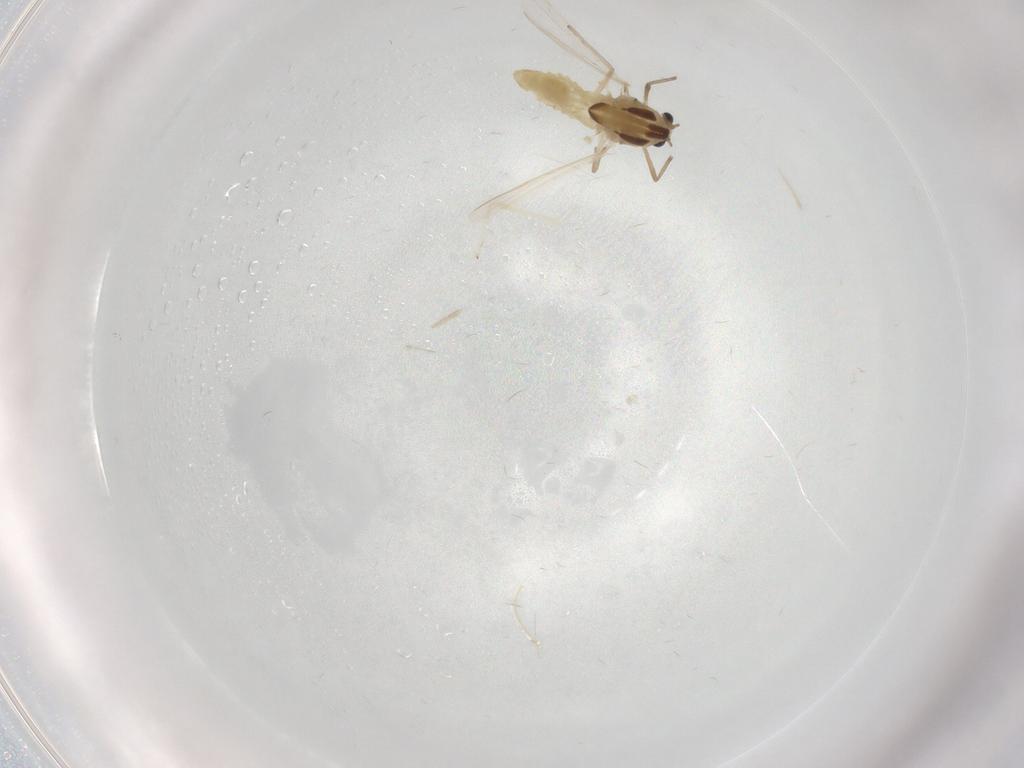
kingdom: Animalia
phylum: Arthropoda
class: Insecta
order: Diptera
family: Chironomidae
